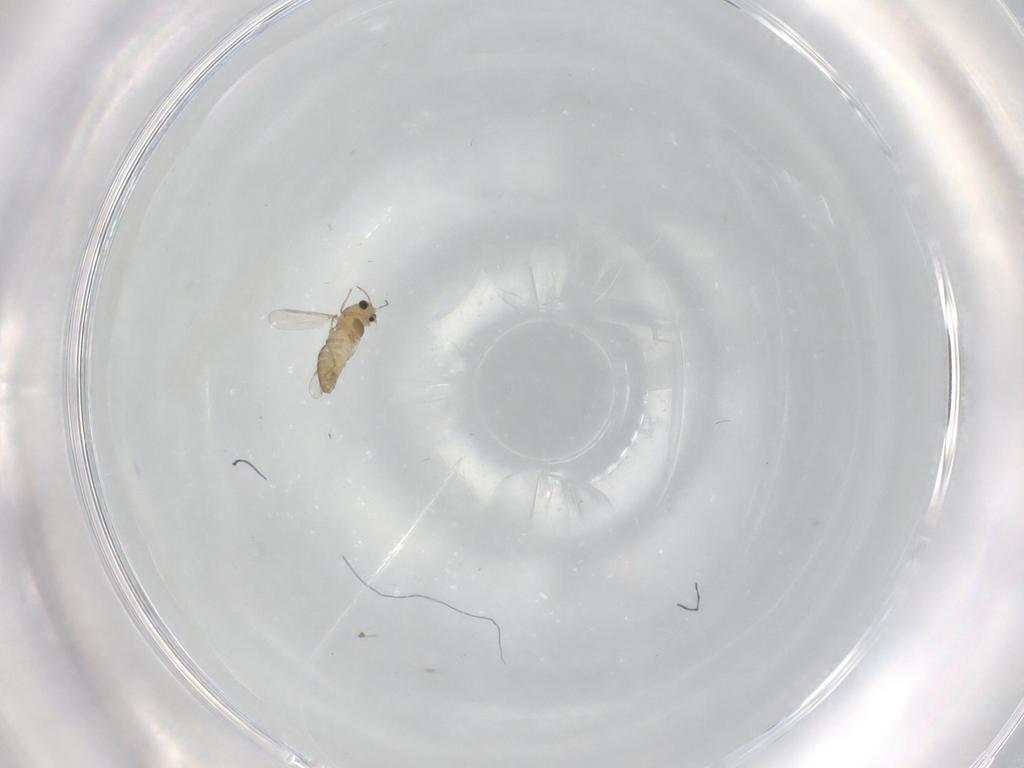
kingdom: Animalia
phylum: Arthropoda
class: Insecta
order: Diptera
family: Chironomidae
